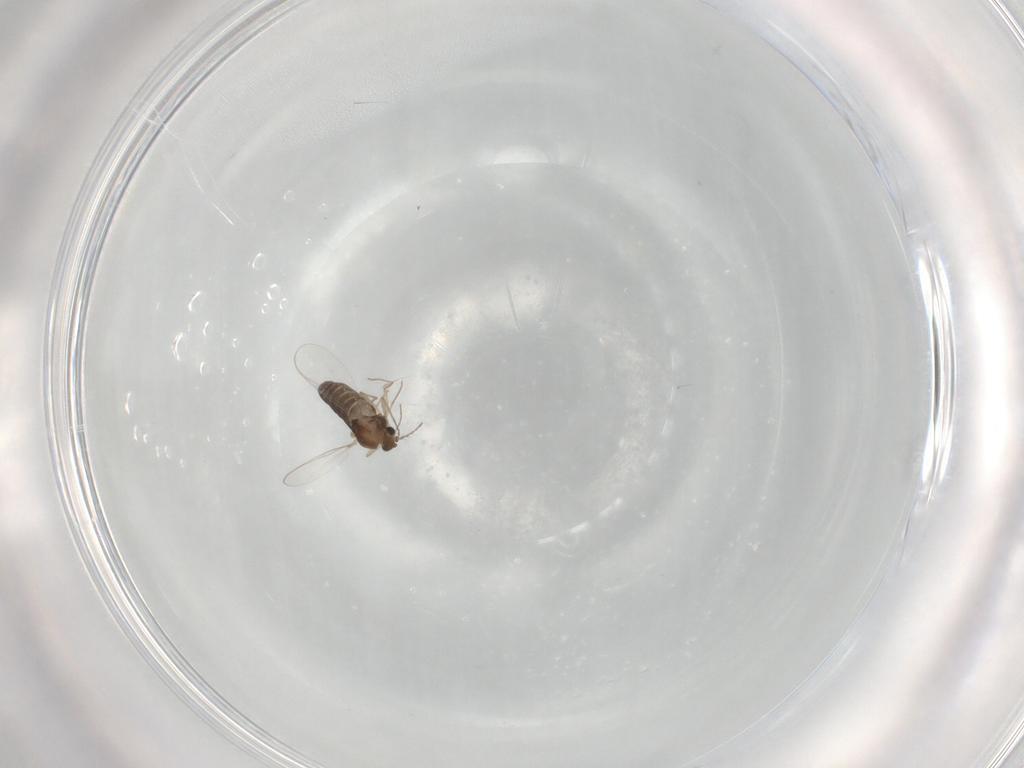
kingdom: Animalia
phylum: Arthropoda
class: Insecta
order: Diptera
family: Chironomidae
